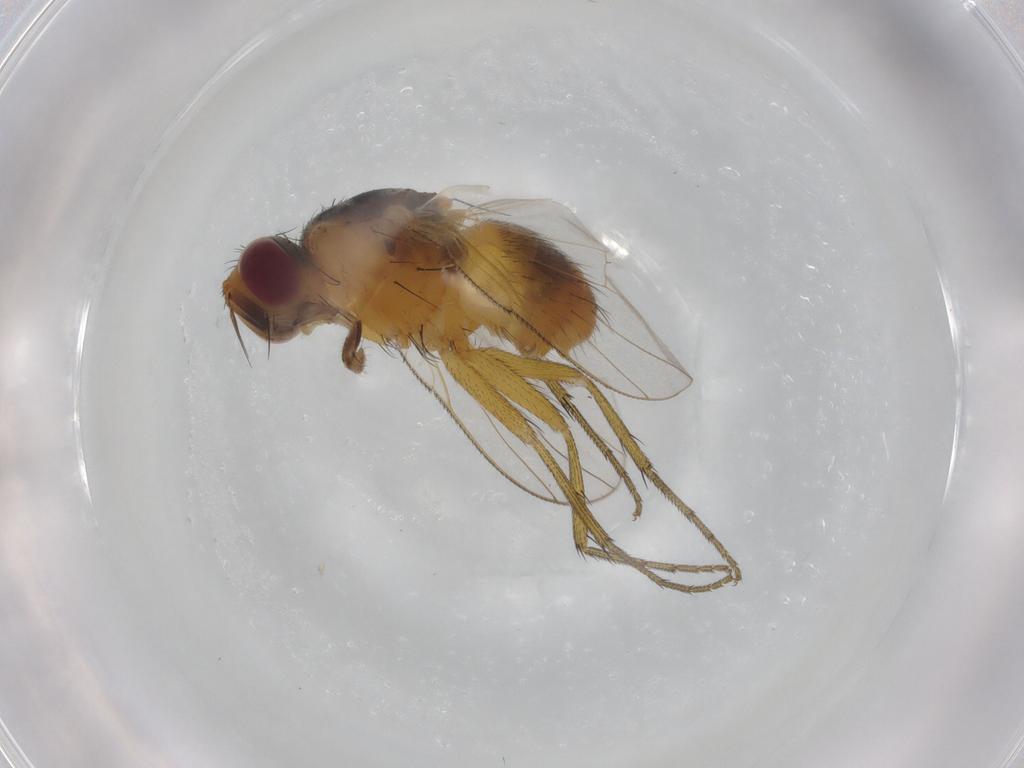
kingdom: Animalia
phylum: Arthropoda
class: Insecta
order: Diptera
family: Muscidae
